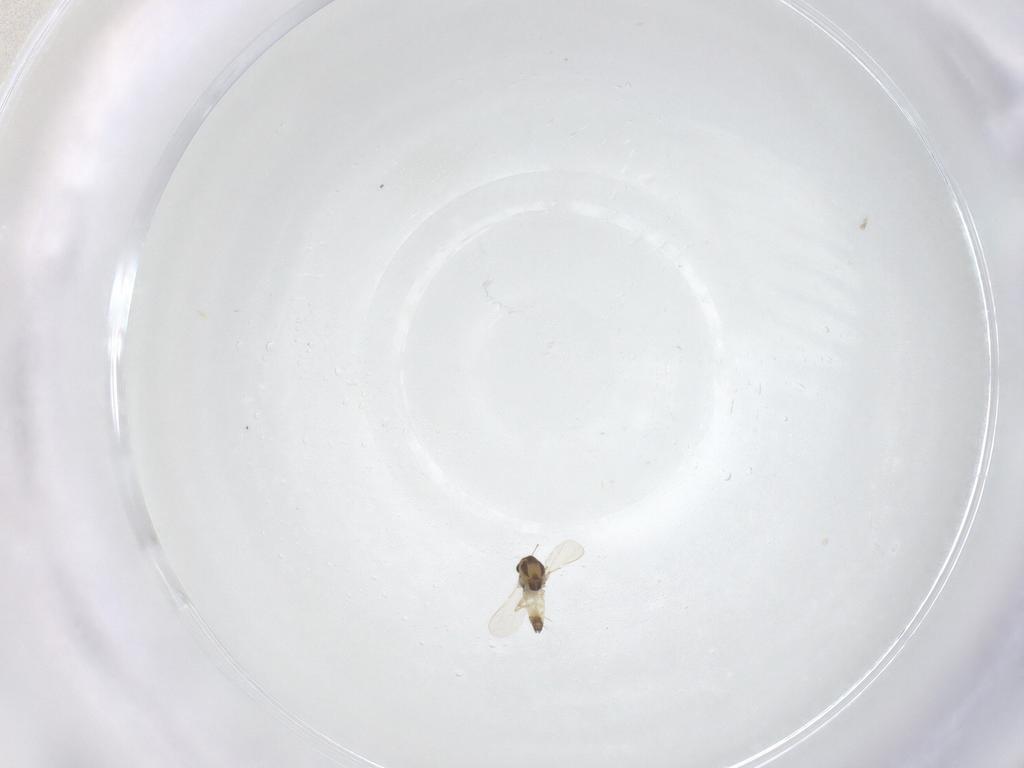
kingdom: Animalia
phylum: Arthropoda
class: Insecta
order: Diptera
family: Chironomidae
